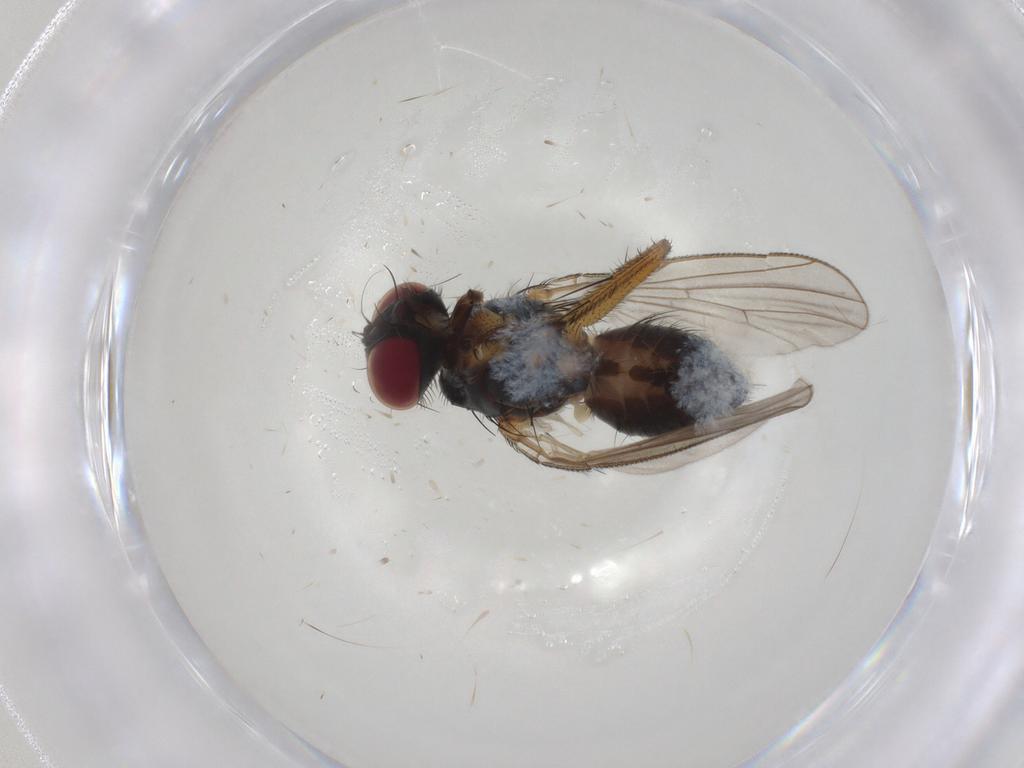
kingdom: Animalia
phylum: Arthropoda
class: Insecta
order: Diptera
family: Muscidae
